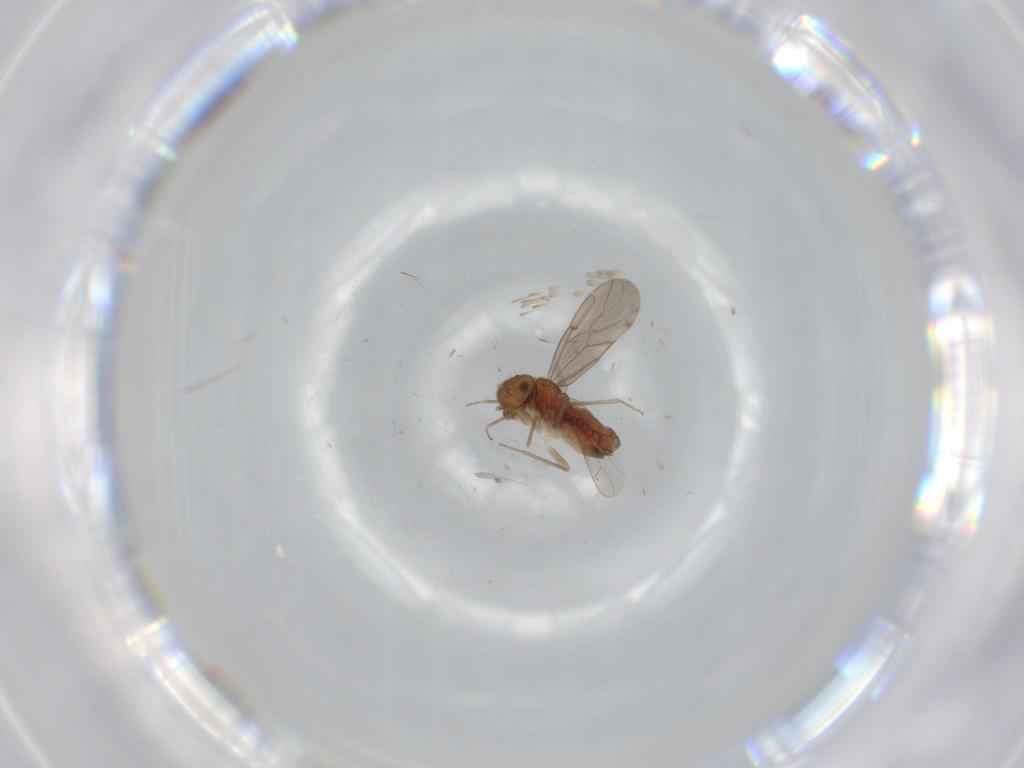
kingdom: Animalia
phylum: Arthropoda
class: Insecta
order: Psocodea
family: Ectopsocidae
